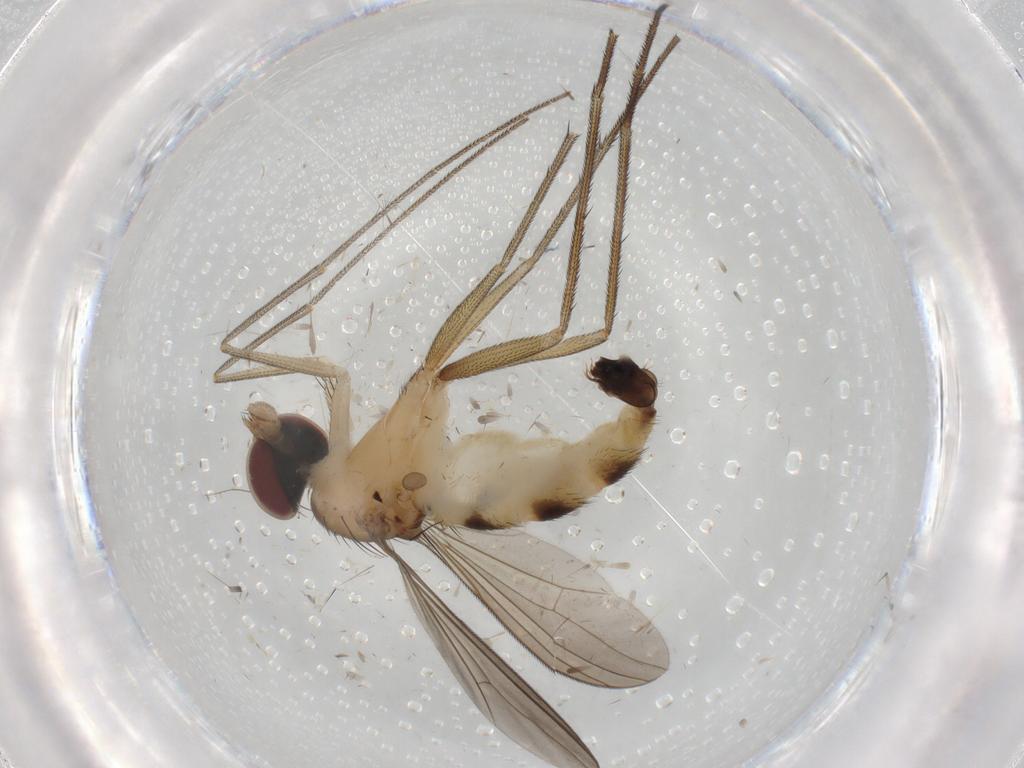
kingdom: Animalia
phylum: Arthropoda
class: Insecta
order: Diptera
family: Dolichopodidae
